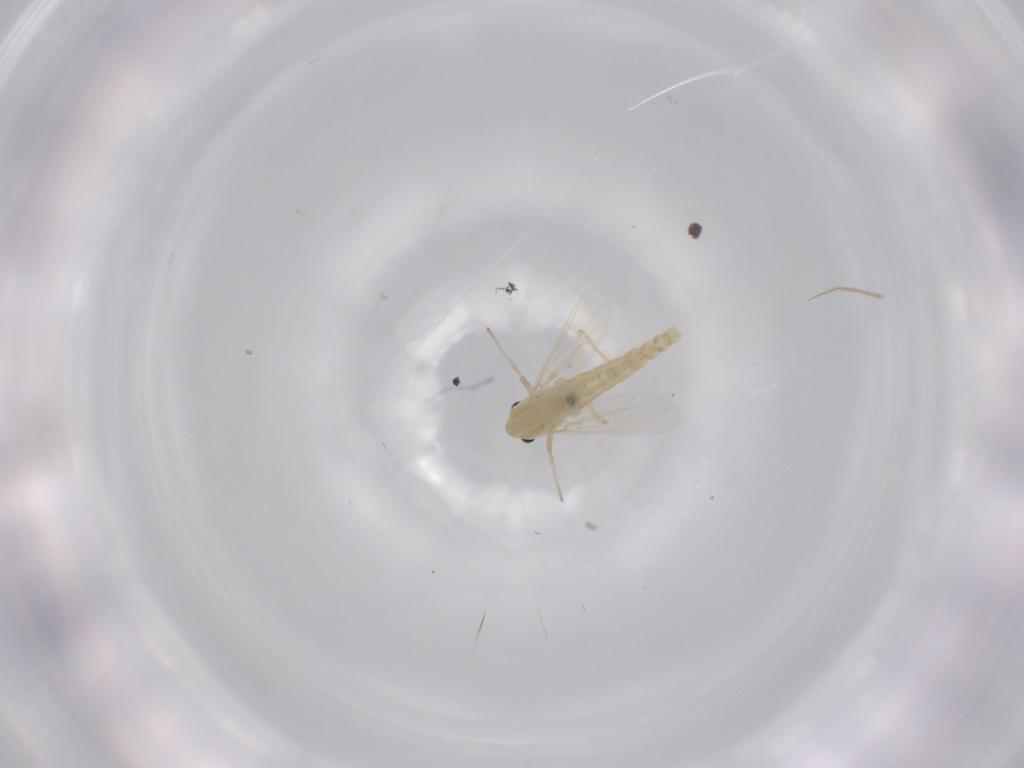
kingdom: Animalia
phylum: Arthropoda
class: Insecta
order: Diptera
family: Chironomidae
